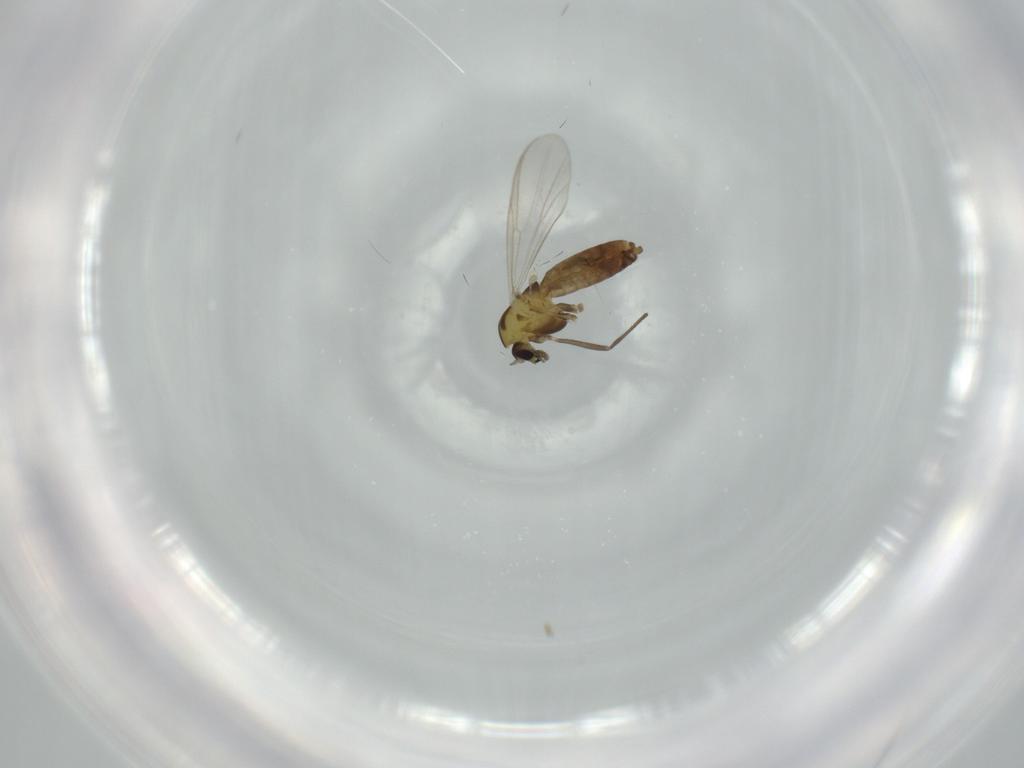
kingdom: Animalia
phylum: Arthropoda
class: Insecta
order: Diptera
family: Chironomidae
